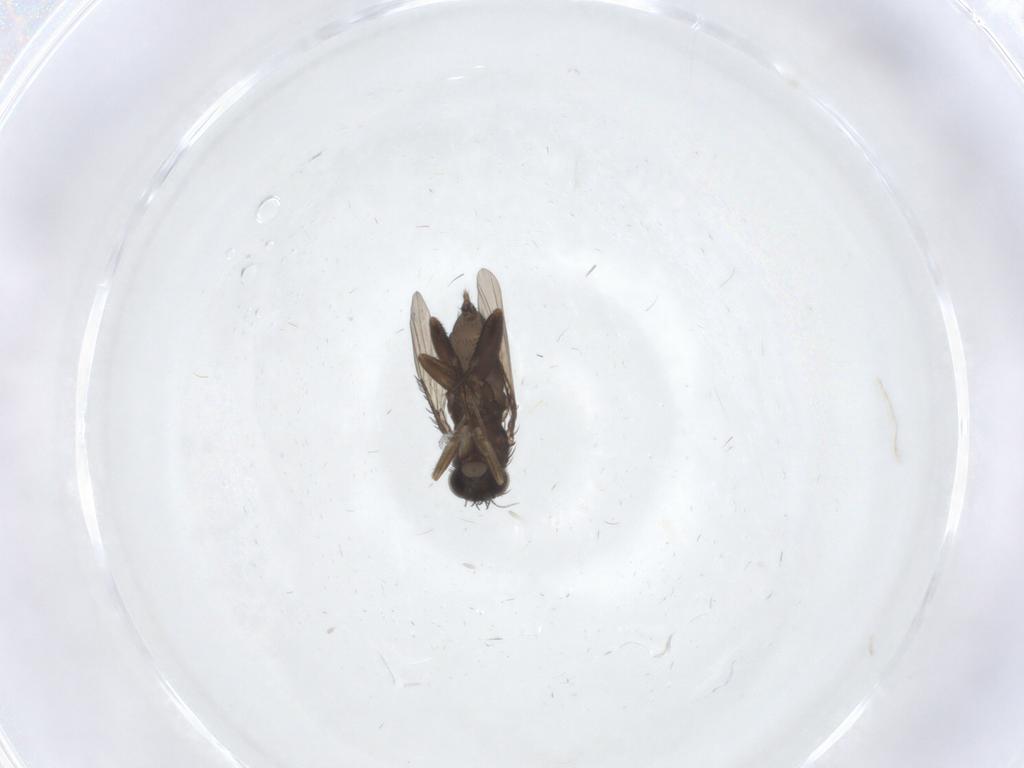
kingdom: Animalia
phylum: Arthropoda
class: Insecta
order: Diptera
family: Phoridae
